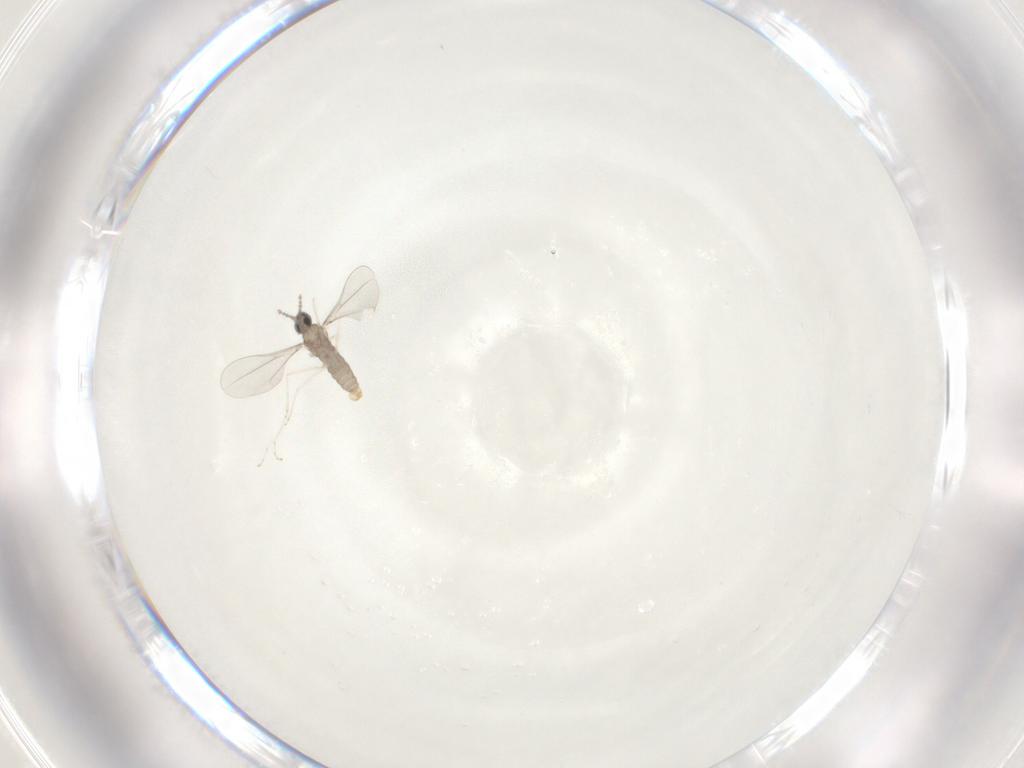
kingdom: Animalia
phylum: Arthropoda
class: Insecta
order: Diptera
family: Cecidomyiidae
